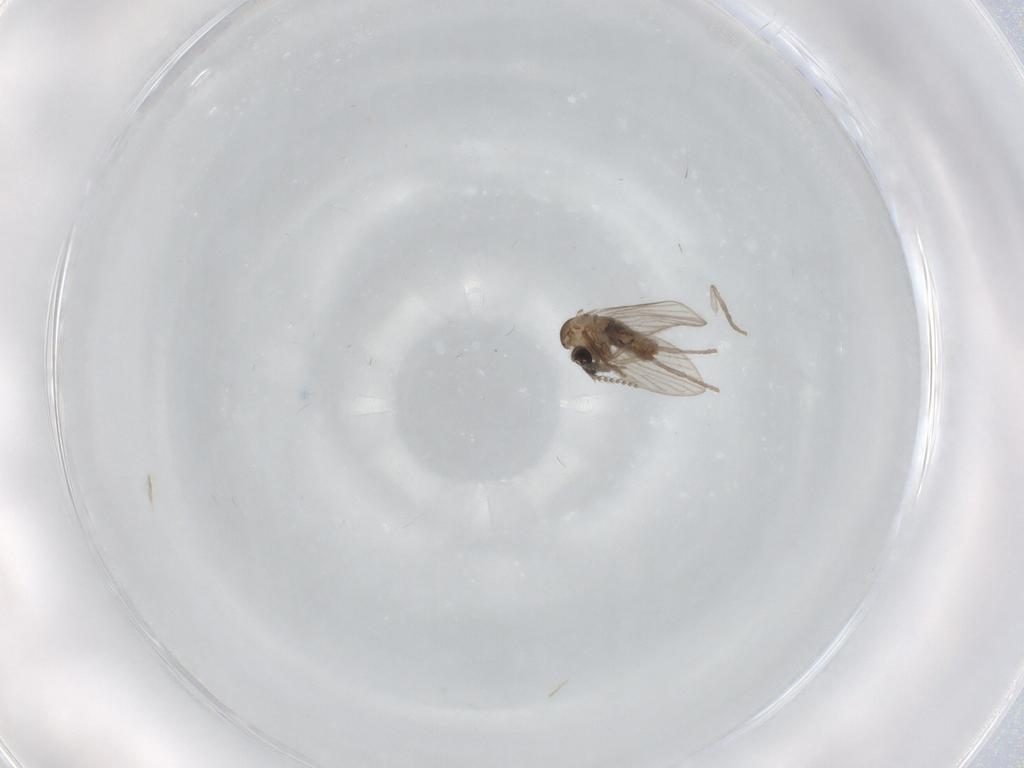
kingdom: Animalia
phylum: Arthropoda
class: Insecta
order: Diptera
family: Psychodidae
